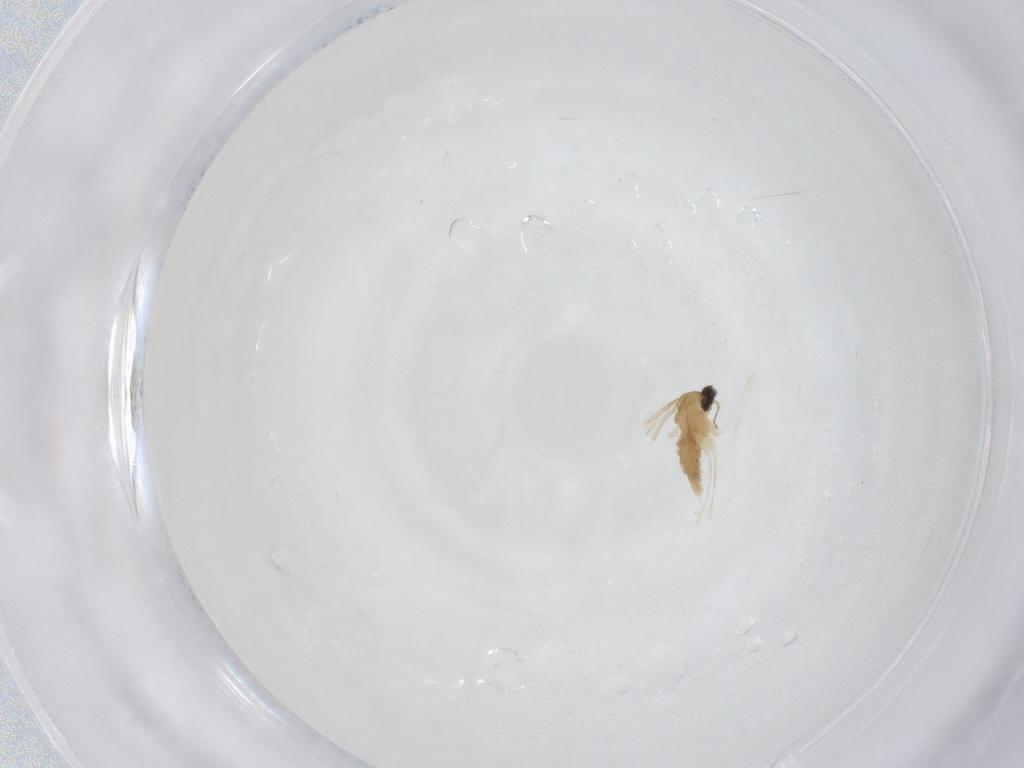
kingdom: Animalia
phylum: Arthropoda
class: Insecta
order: Diptera
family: Cecidomyiidae
